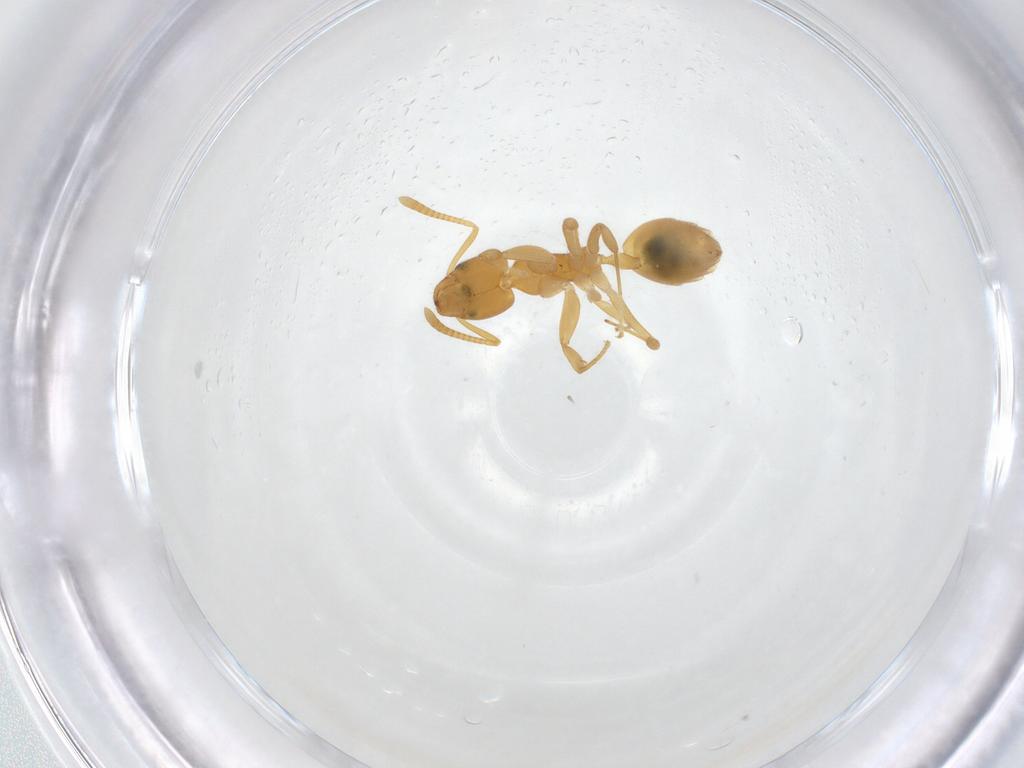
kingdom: Animalia
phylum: Arthropoda
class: Insecta
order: Hymenoptera
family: Formicidae
